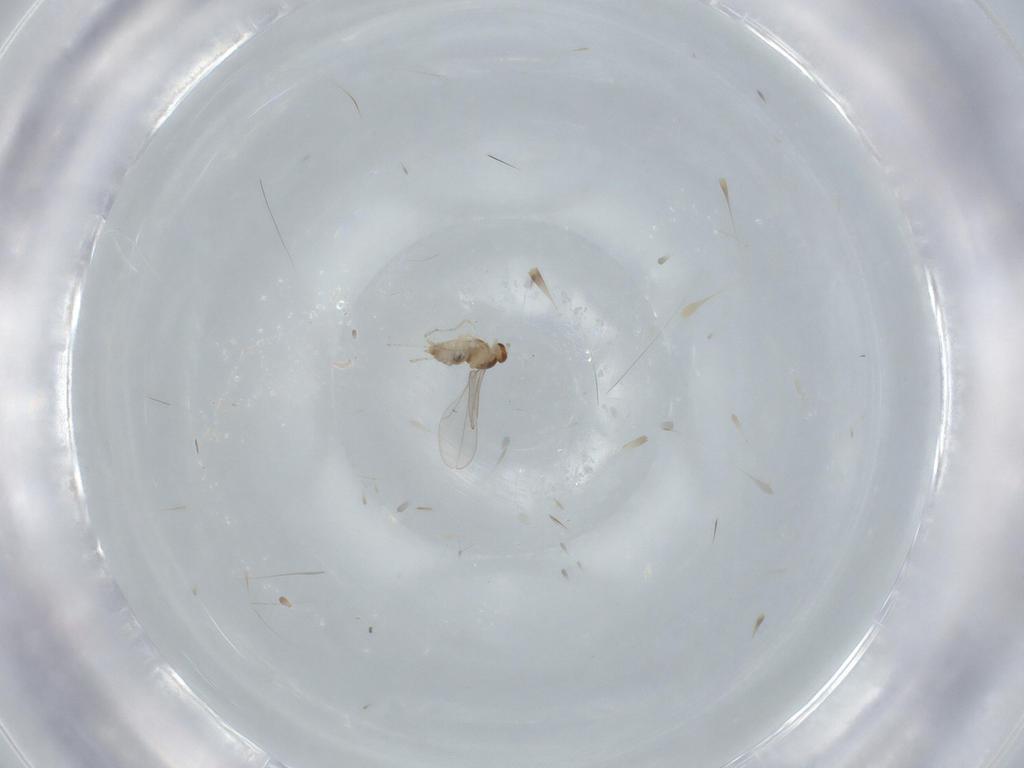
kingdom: Animalia
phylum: Arthropoda
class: Insecta
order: Diptera
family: Cecidomyiidae
